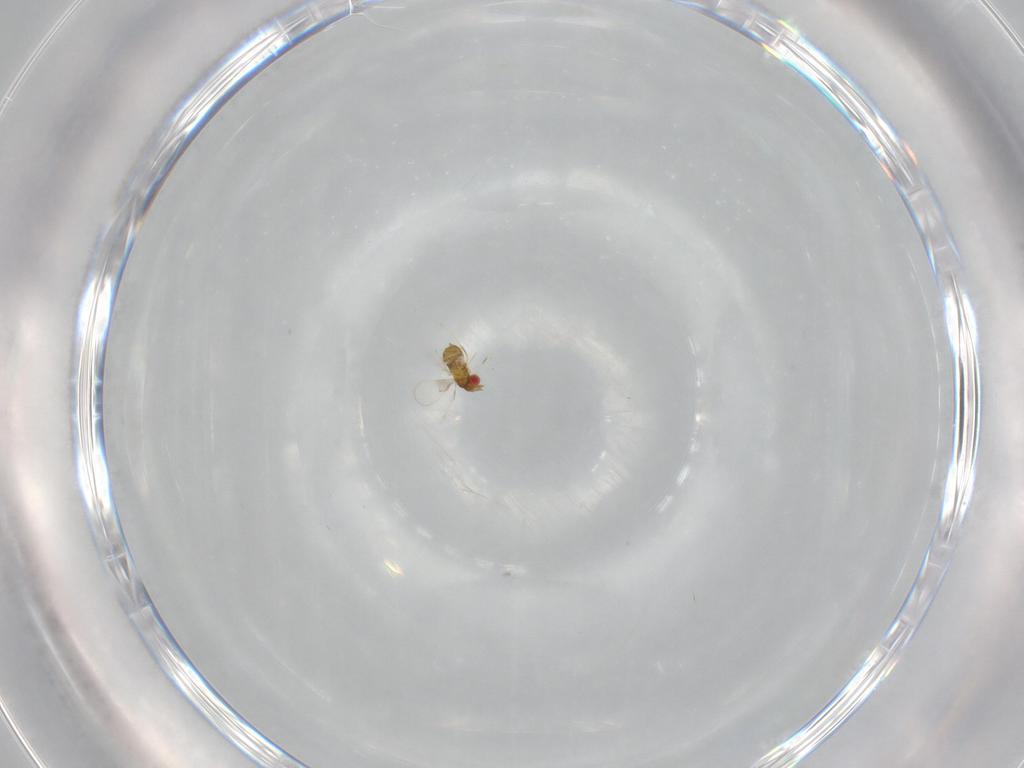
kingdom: Animalia
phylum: Arthropoda
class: Insecta
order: Hymenoptera
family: Trichogrammatidae
